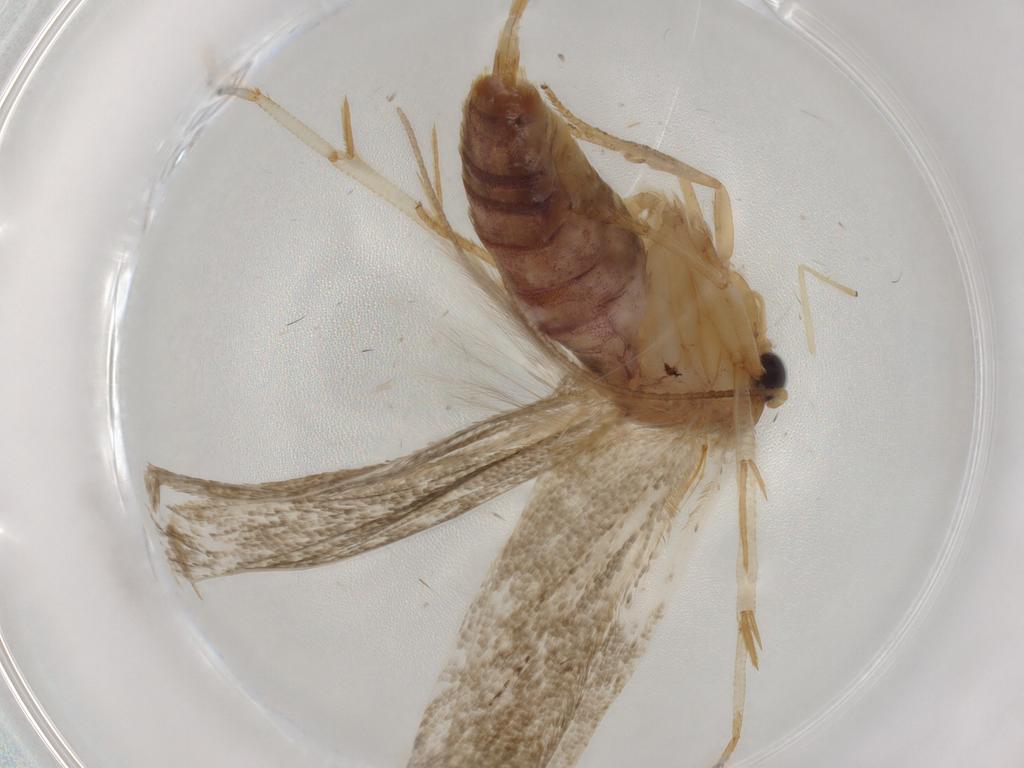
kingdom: Animalia
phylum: Arthropoda
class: Insecta
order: Lepidoptera
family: Blastobasidae
